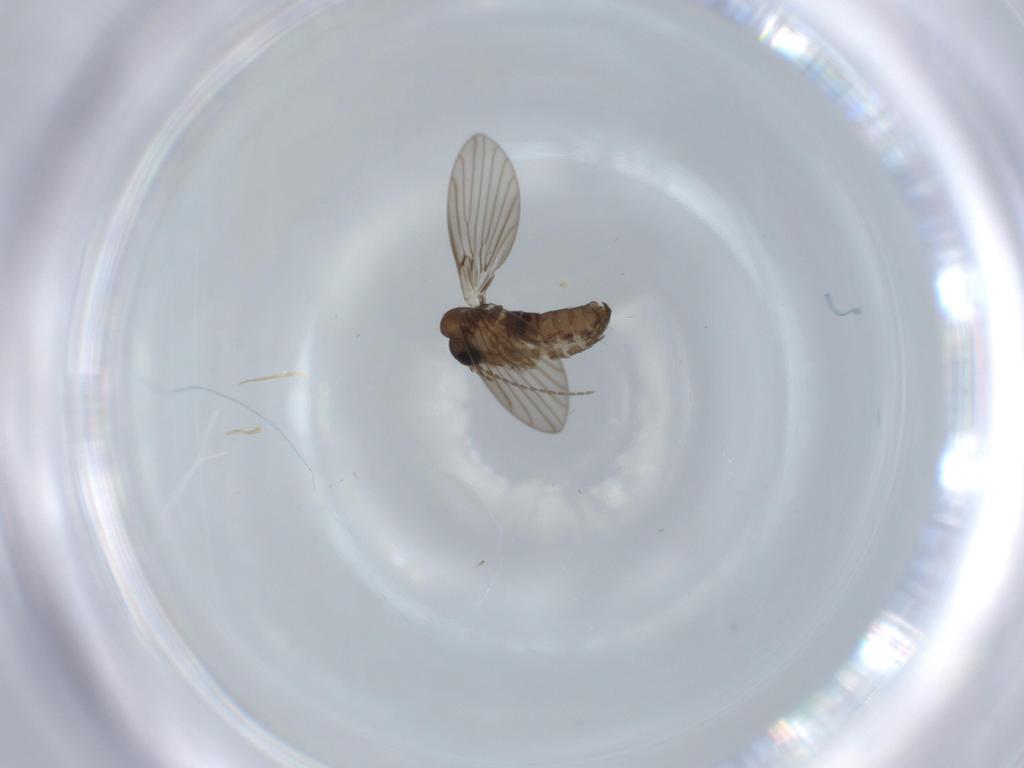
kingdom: Animalia
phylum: Arthropoda
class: Insecta
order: Diptera
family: Psychodidae
